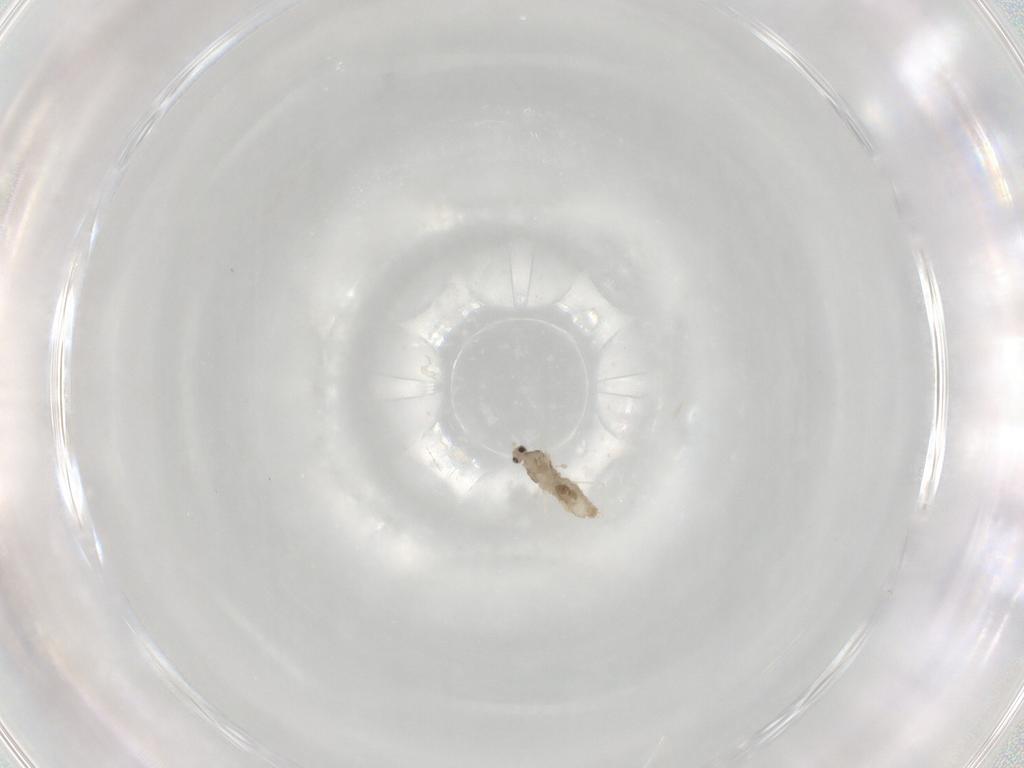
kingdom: Animalia
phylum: Arthropoda
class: Insecta
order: Diptera
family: Cecidomyiidae
